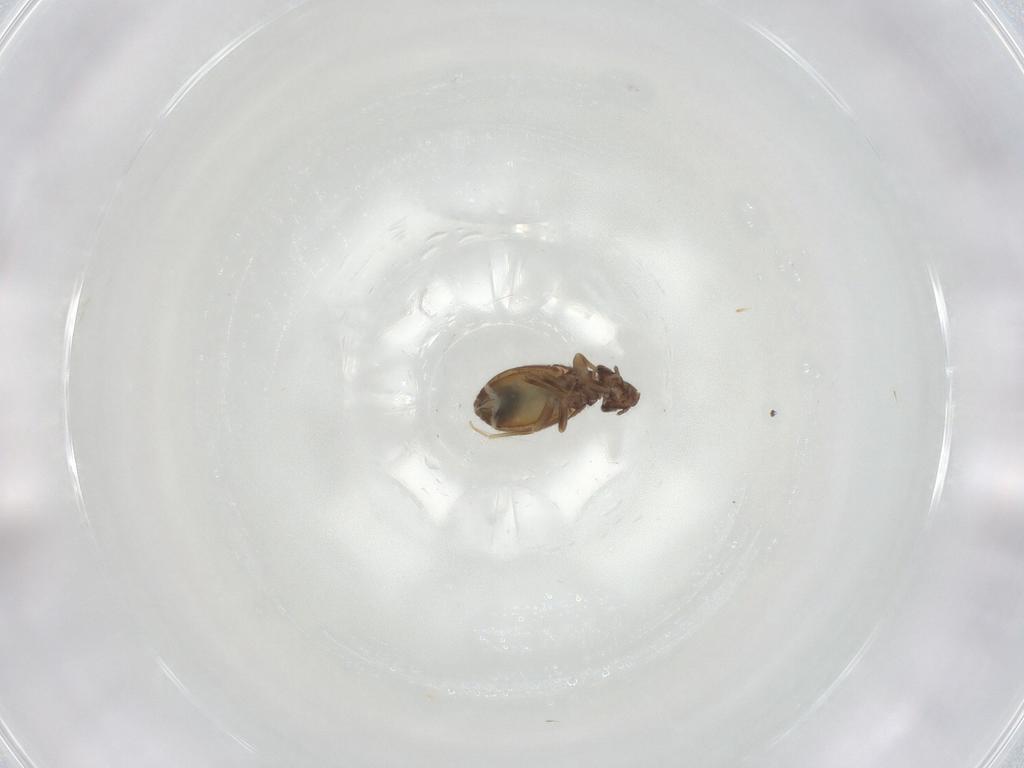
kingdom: Animalia
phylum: Arthropoda
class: Insecta
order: Psocodea
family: Trogiidae
